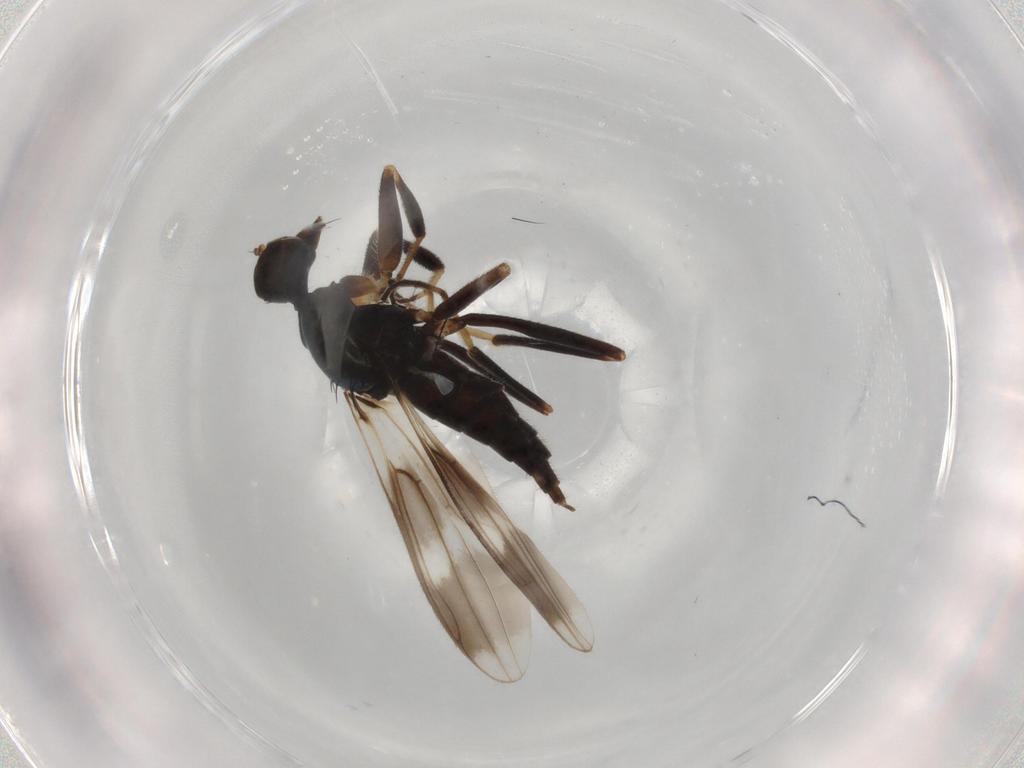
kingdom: Animalia
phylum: Arthropoda
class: Insecta
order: Diptera
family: Hybotidae
